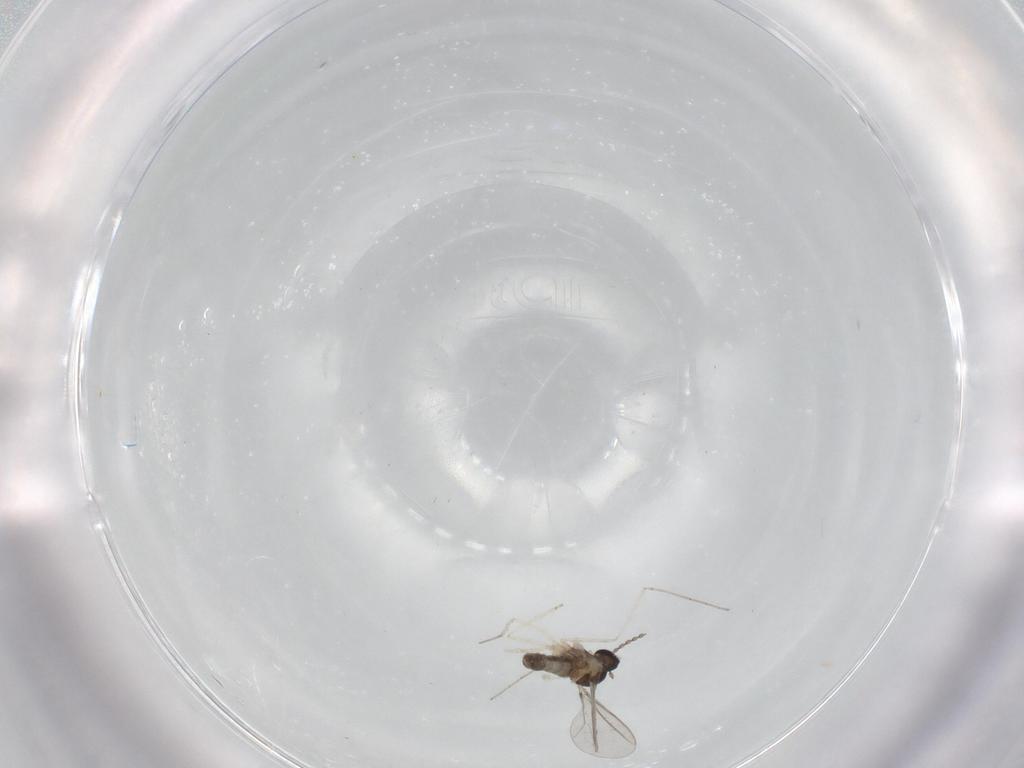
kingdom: Animalia
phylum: Arthropoda
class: Insecta
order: Diptera
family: Cecidomyiidae
